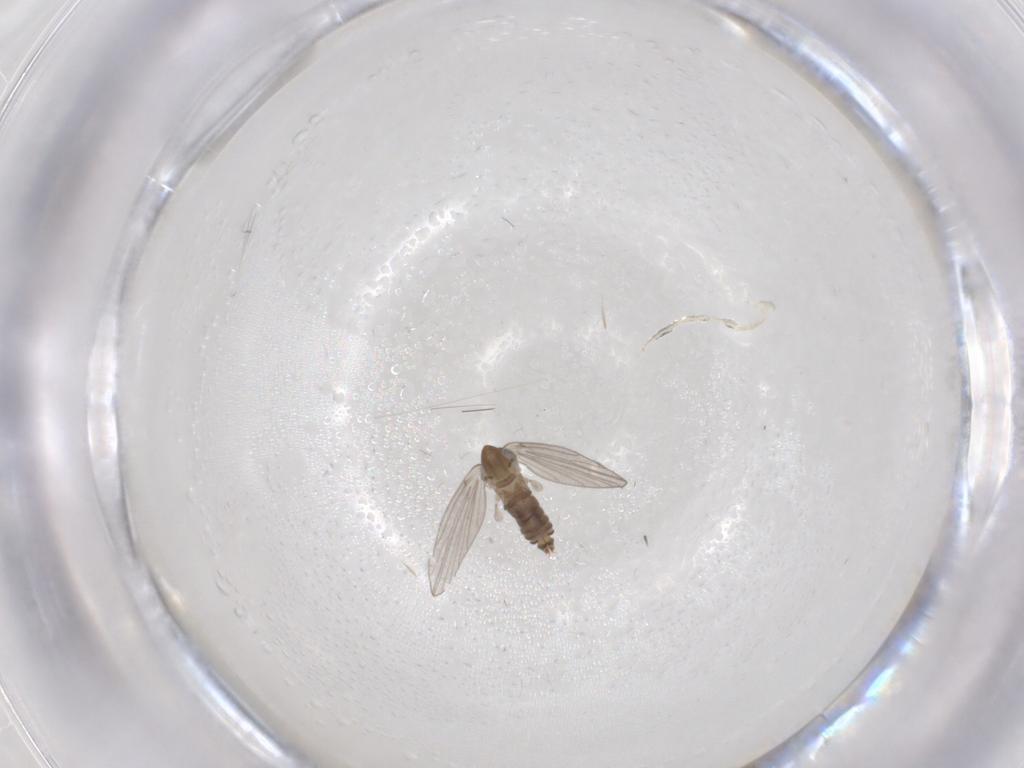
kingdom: Animalia
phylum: Arthropoda
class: Insecta
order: Diptera
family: Psychodidae
